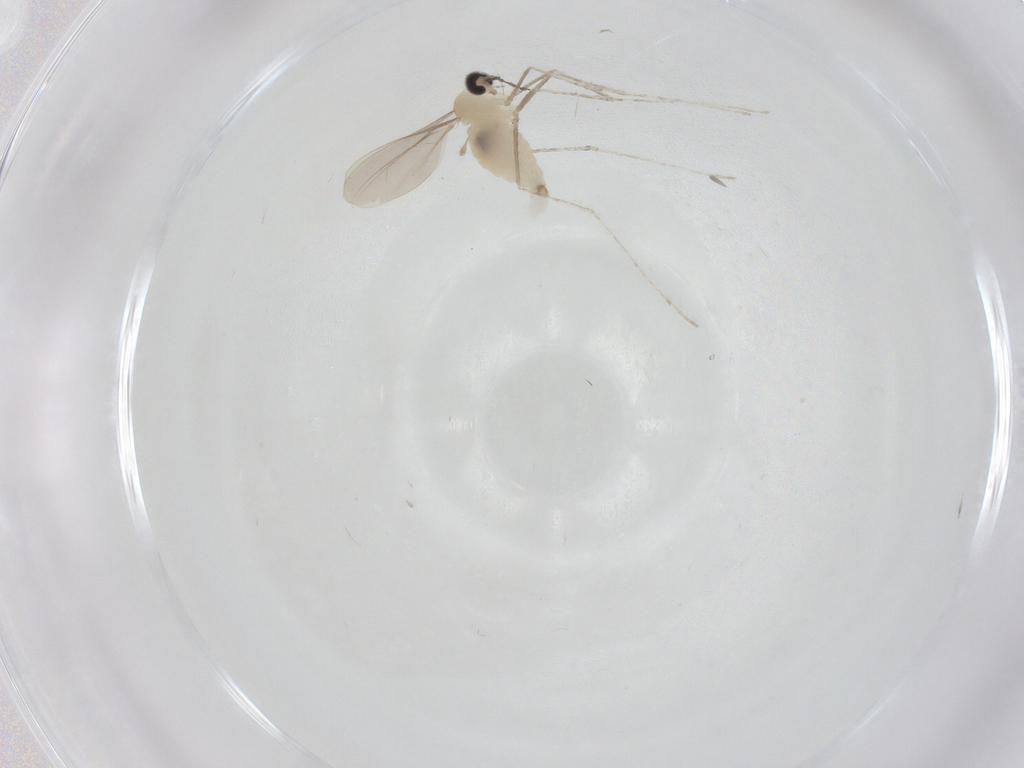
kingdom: Animalia
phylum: Arthropoda
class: Insecta
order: Diptera
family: Cecidomyiidae
